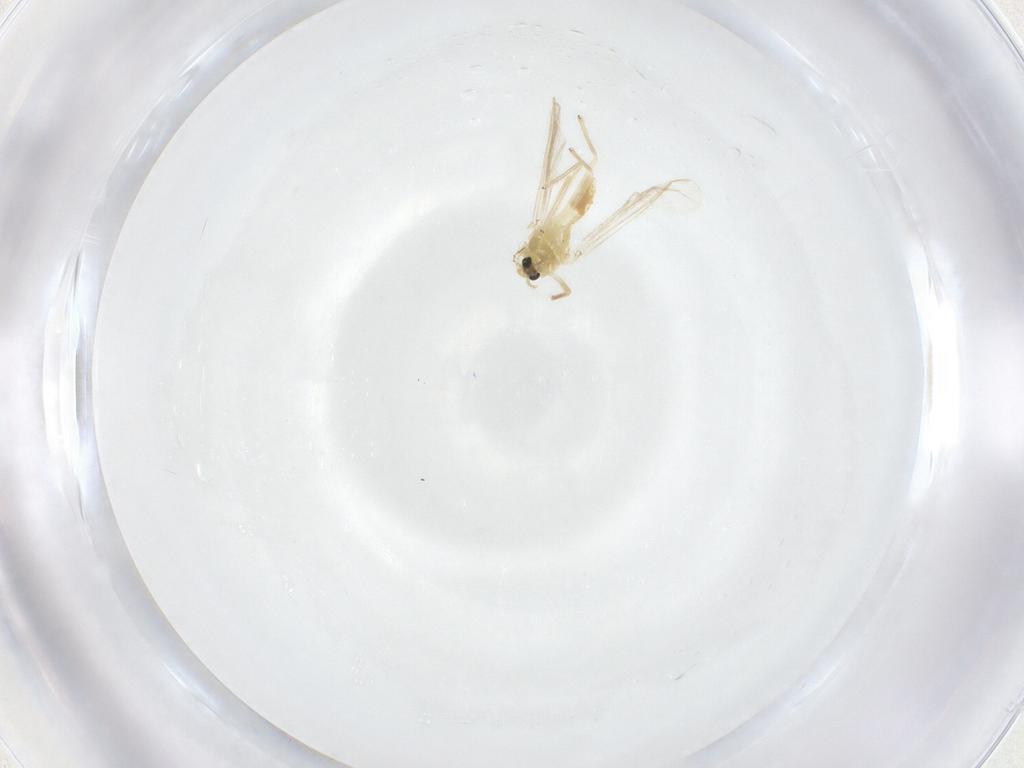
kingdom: Animalia
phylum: Arthropoda
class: Insecta
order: Diptera
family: Chironomidae
